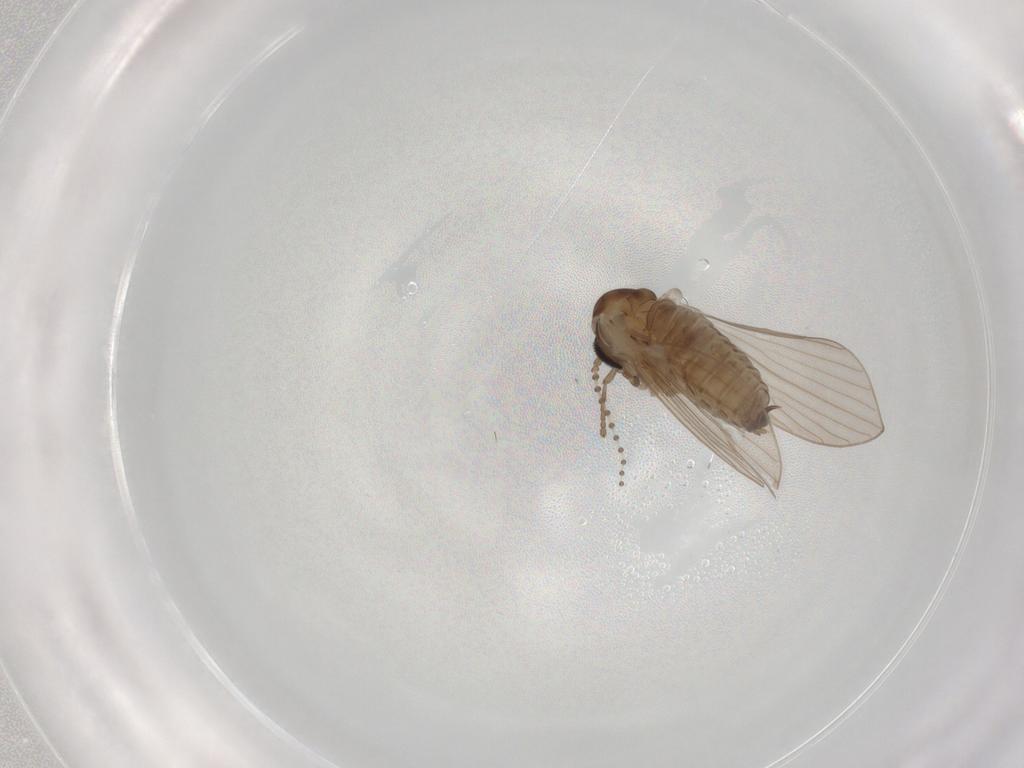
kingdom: Animalia
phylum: Arthropoda
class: Insecta
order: Diptera
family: Psychodidae
